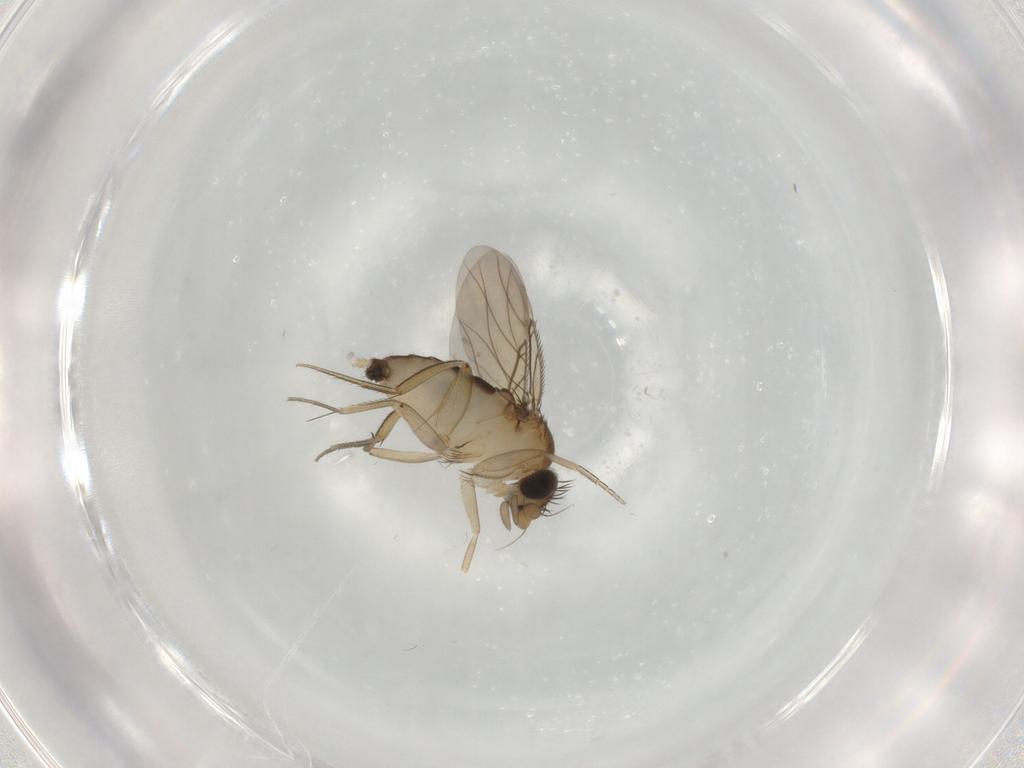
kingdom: Animalia
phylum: Arthropoda
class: Insecta
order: Diptera
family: Phoridae
